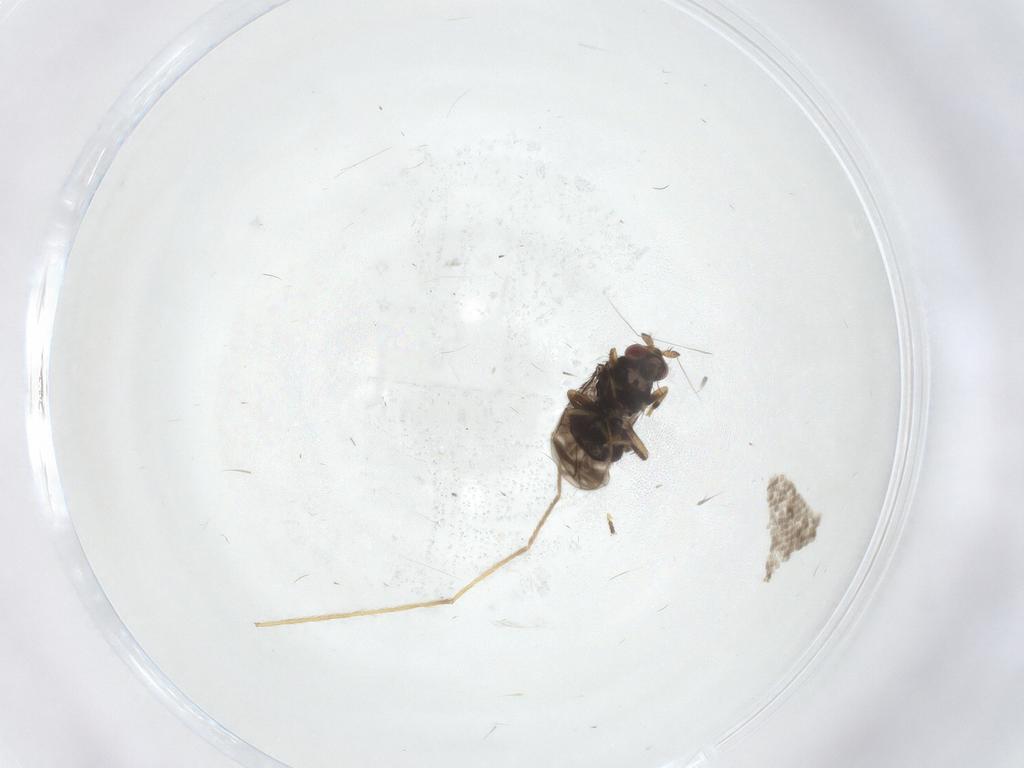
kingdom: Animalia
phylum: Arthropoda
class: Insecta
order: Diptera
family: Sphaeroceridae
